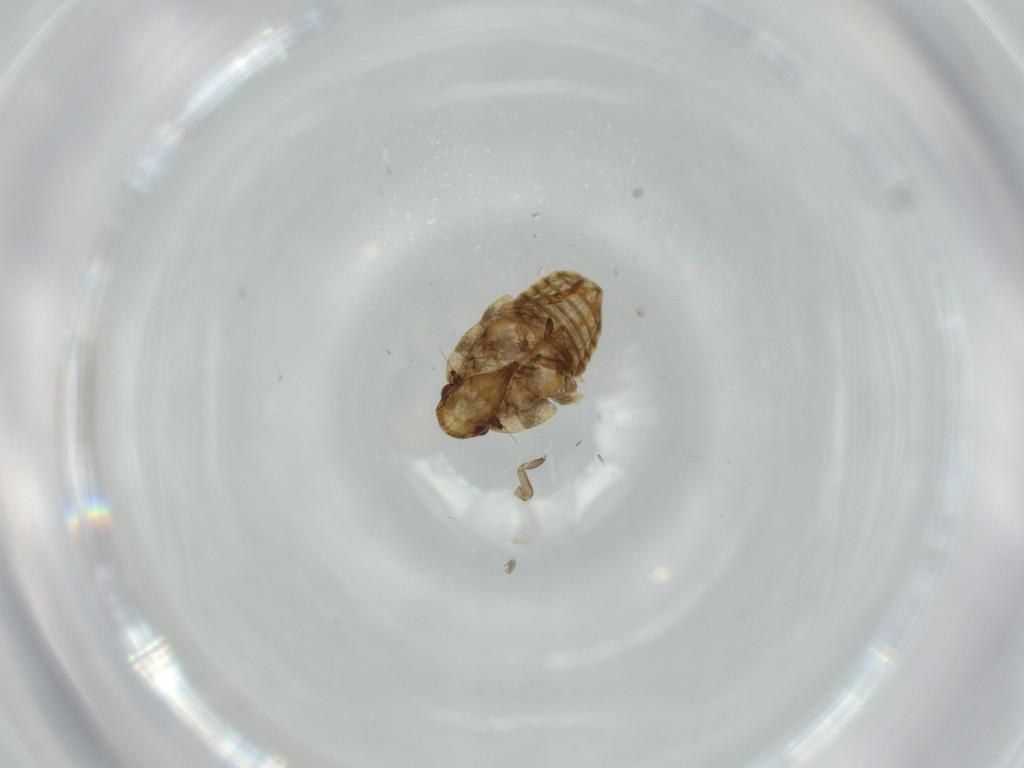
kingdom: Animalia
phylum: Arthropoda
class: Insecta
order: Hemiptera
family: Flatidae
